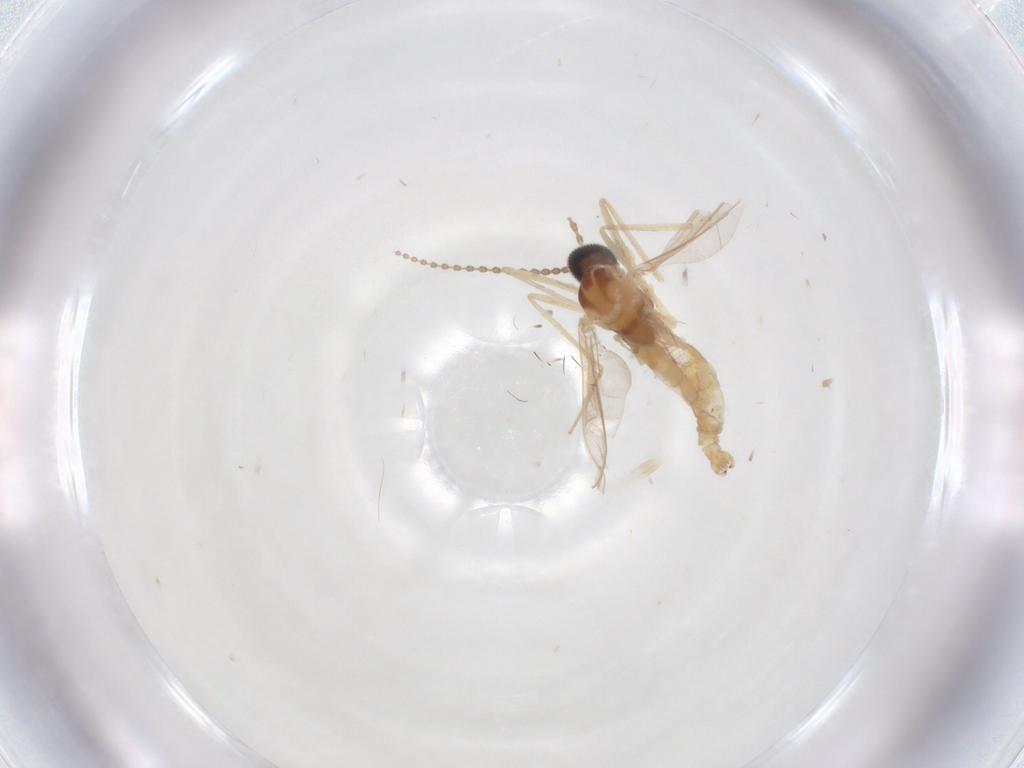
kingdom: Animalia
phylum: Arthropoda
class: Insecta
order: Diptera
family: Cecidomyiidae
